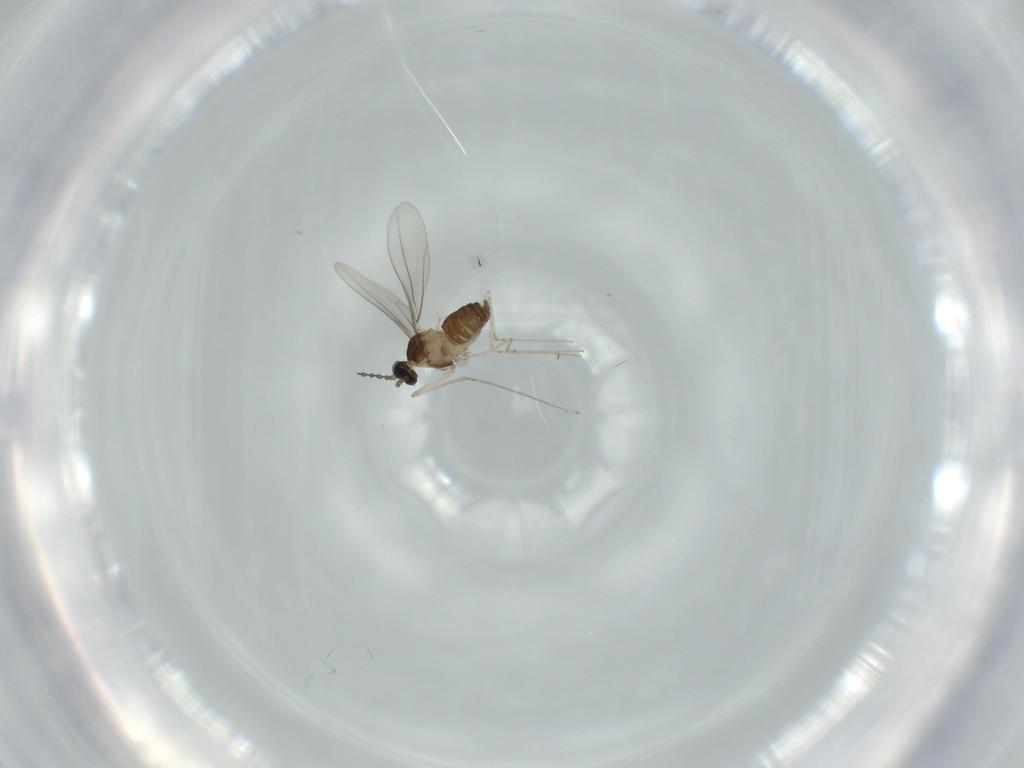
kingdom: Animalia
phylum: Arthropoda
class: Insecta
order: Diptera
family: Cecidomyiidae
